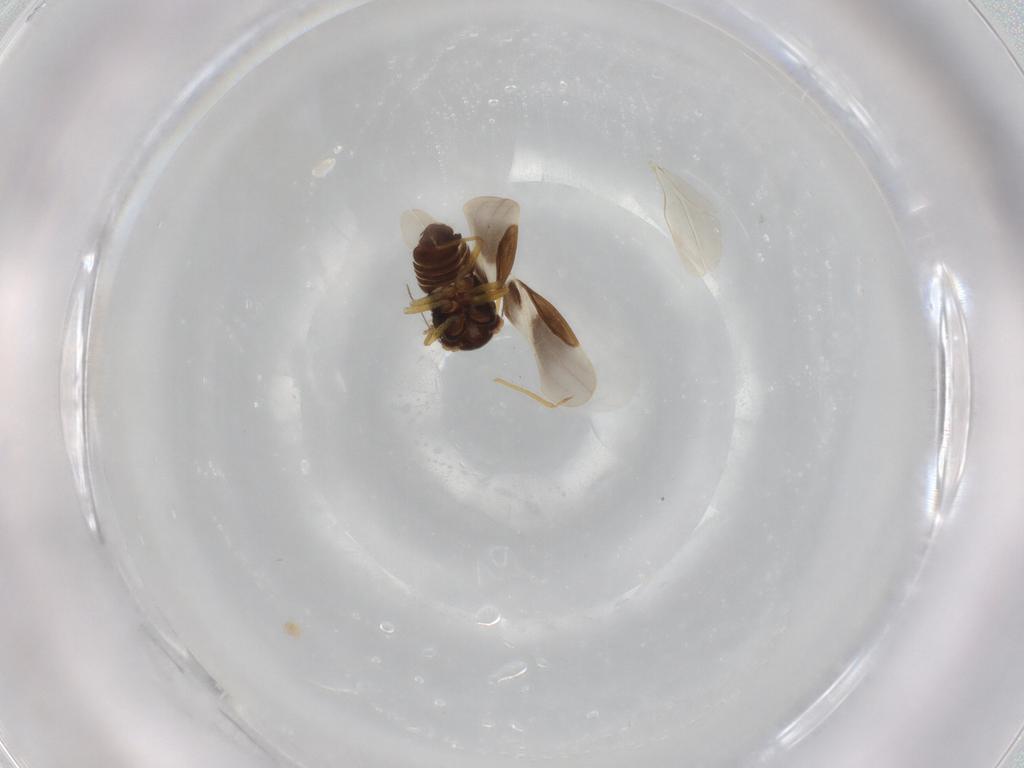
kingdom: Animalia
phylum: Arthropoda
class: Insecta
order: Hemiptera
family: Schizopteridae
